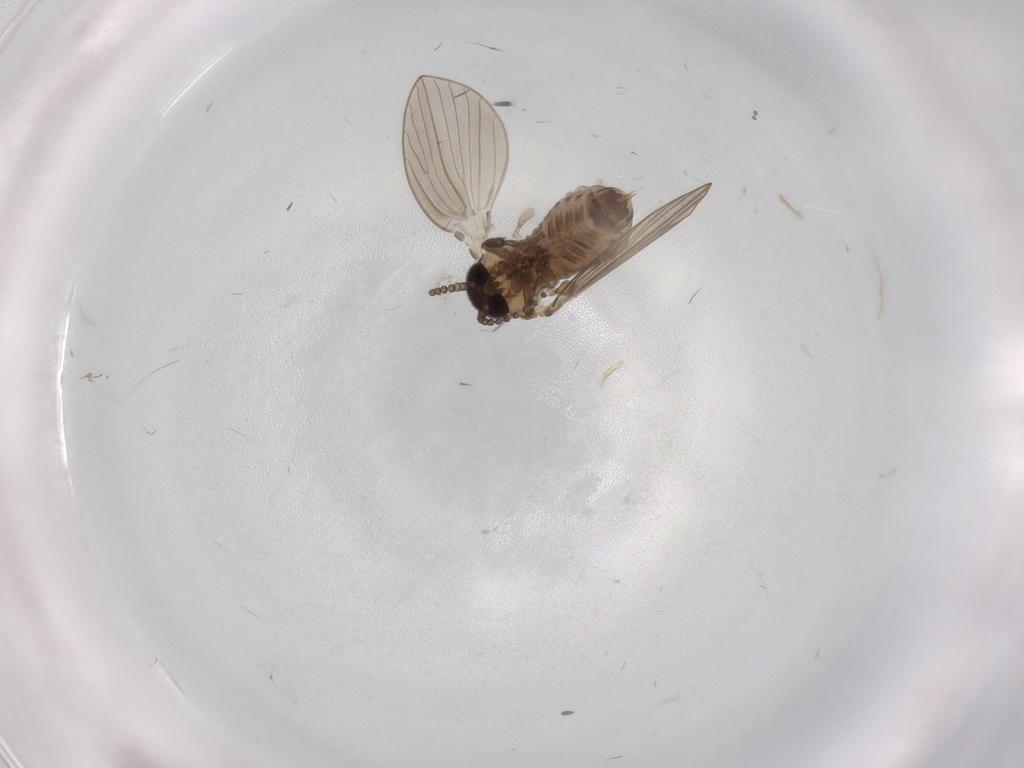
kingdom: Animalia
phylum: Arthropoda
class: Insecta
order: Diptera
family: Psychodidae
